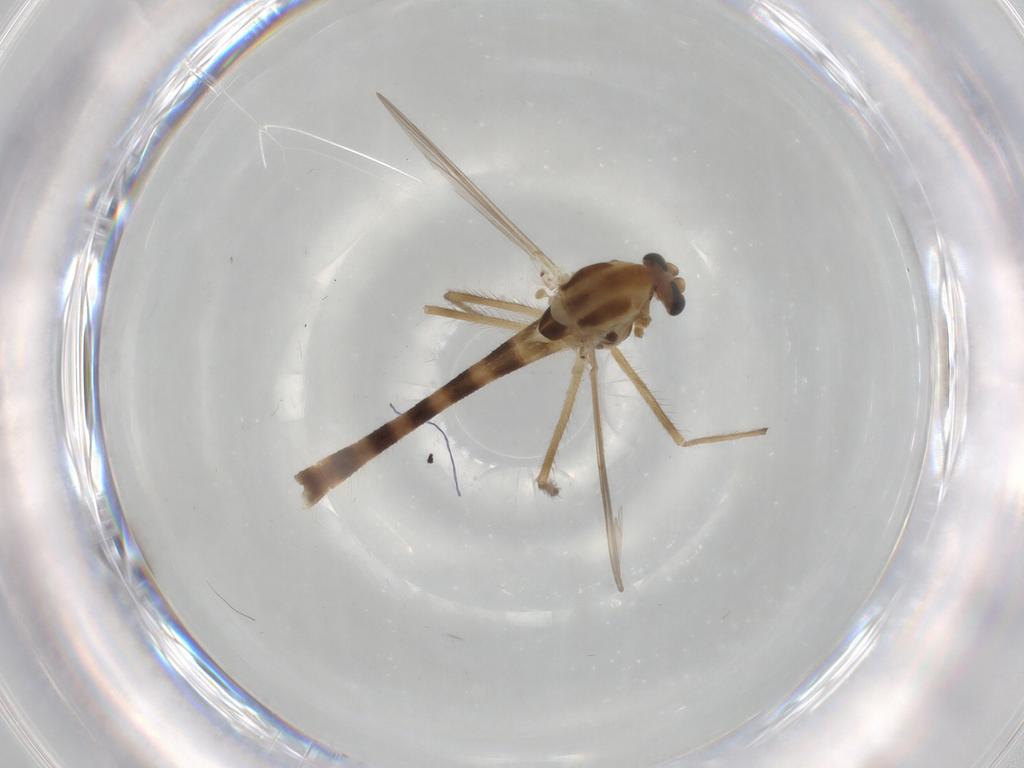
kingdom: Animalia
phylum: Arthropoda
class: Insecta
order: Diptera
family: Chironomidae
